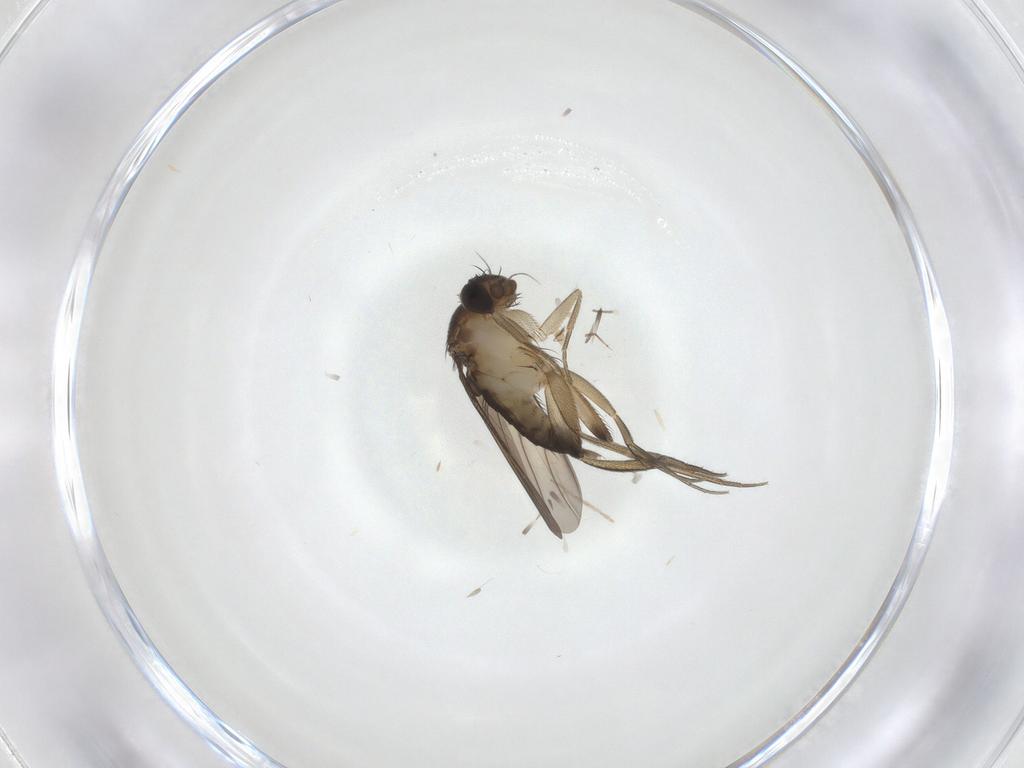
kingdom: Animalia
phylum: Arthropoda
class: Insecta
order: Diptera
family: Chironomidae
